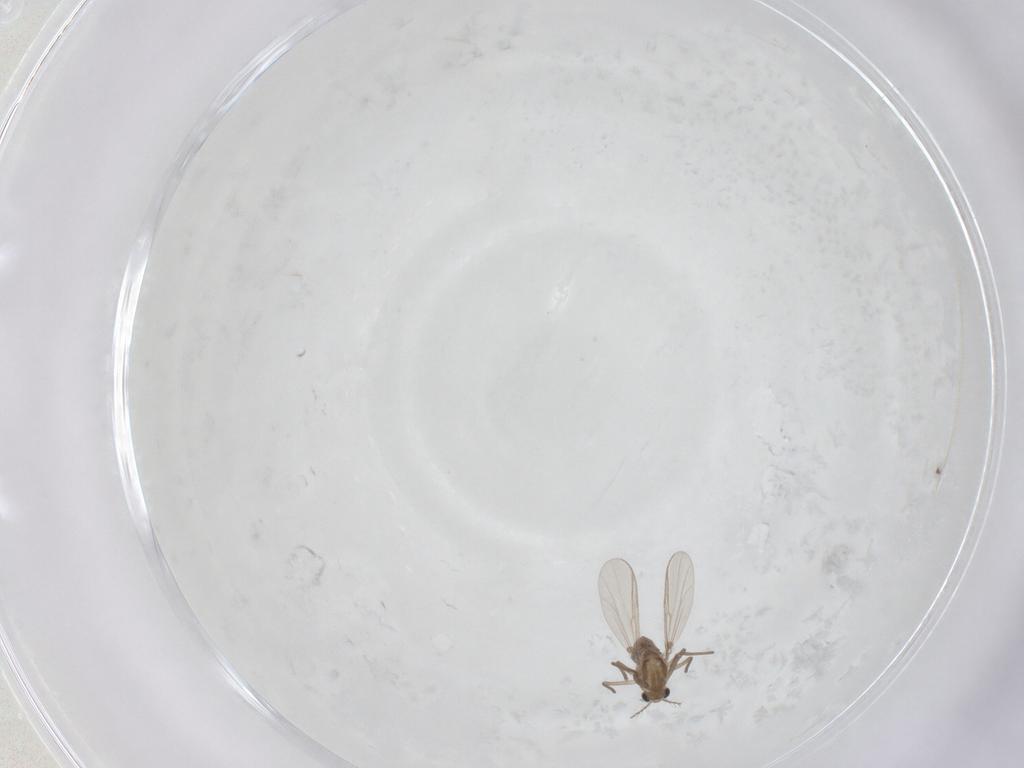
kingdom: Animalia
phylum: Arthropoda
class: Insecta
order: Diptera
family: Chironomidae
